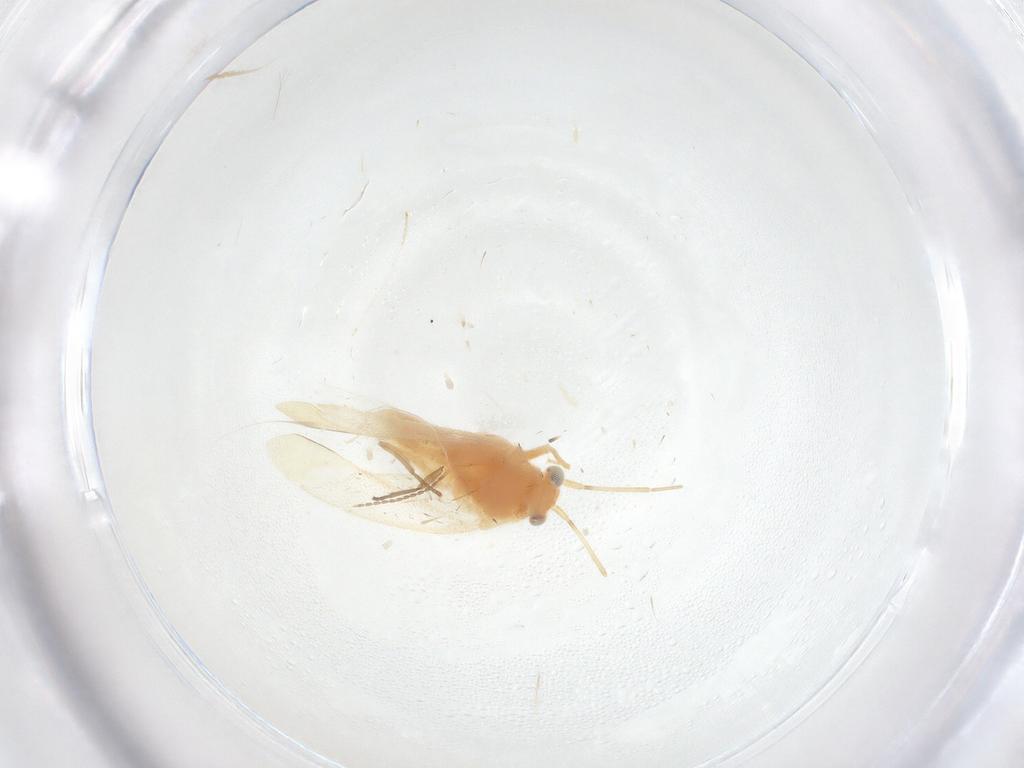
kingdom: Animalia
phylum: Arthropoda
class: Insecta
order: Hemiptera
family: Miridae
